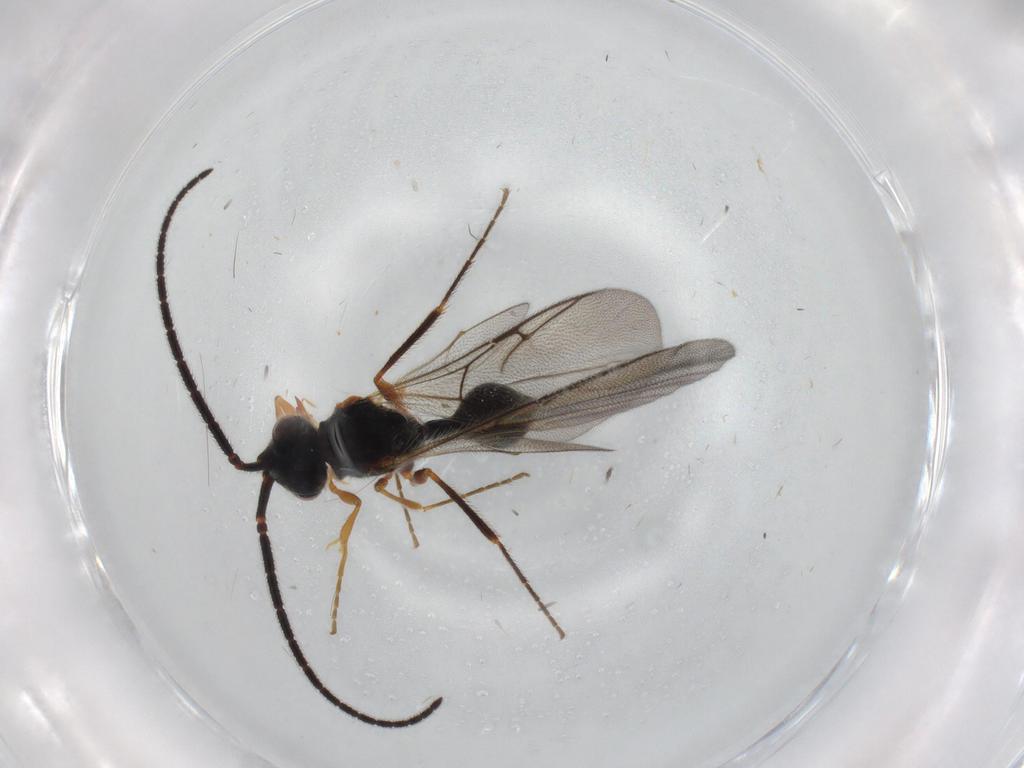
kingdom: Animalia
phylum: Arthropoda
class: Insecta
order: Hymenoptera
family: Diapriidae
